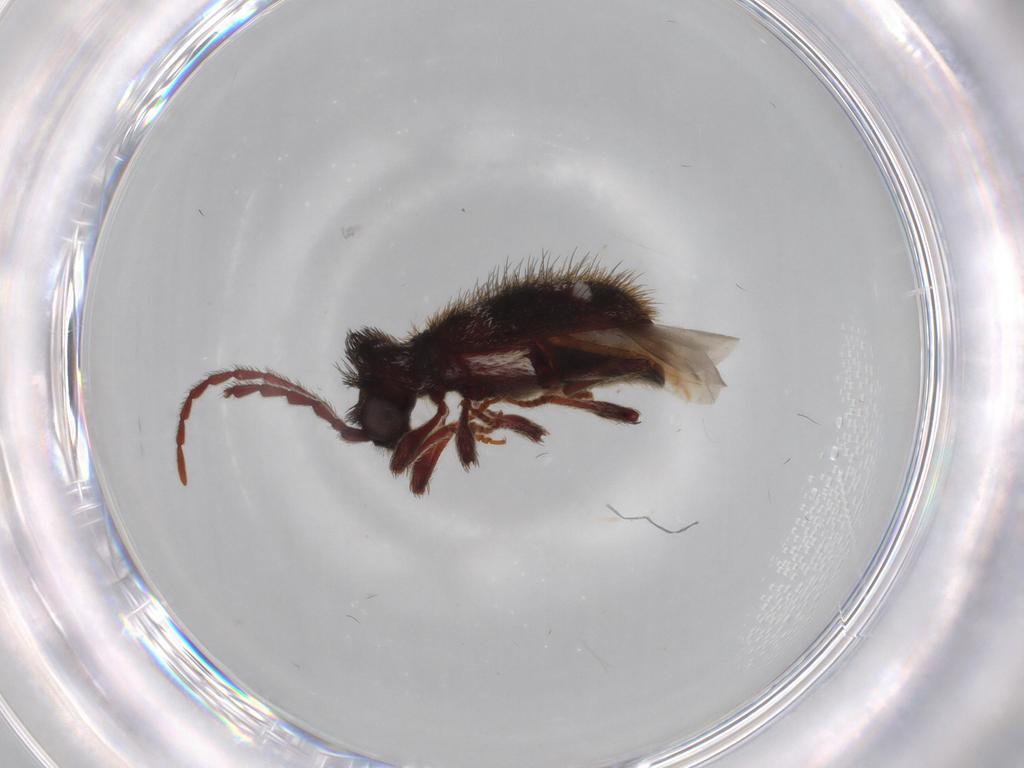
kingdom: Animalia
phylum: Arthropoda
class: Insecta
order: Coleoptera
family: Ptinidae
